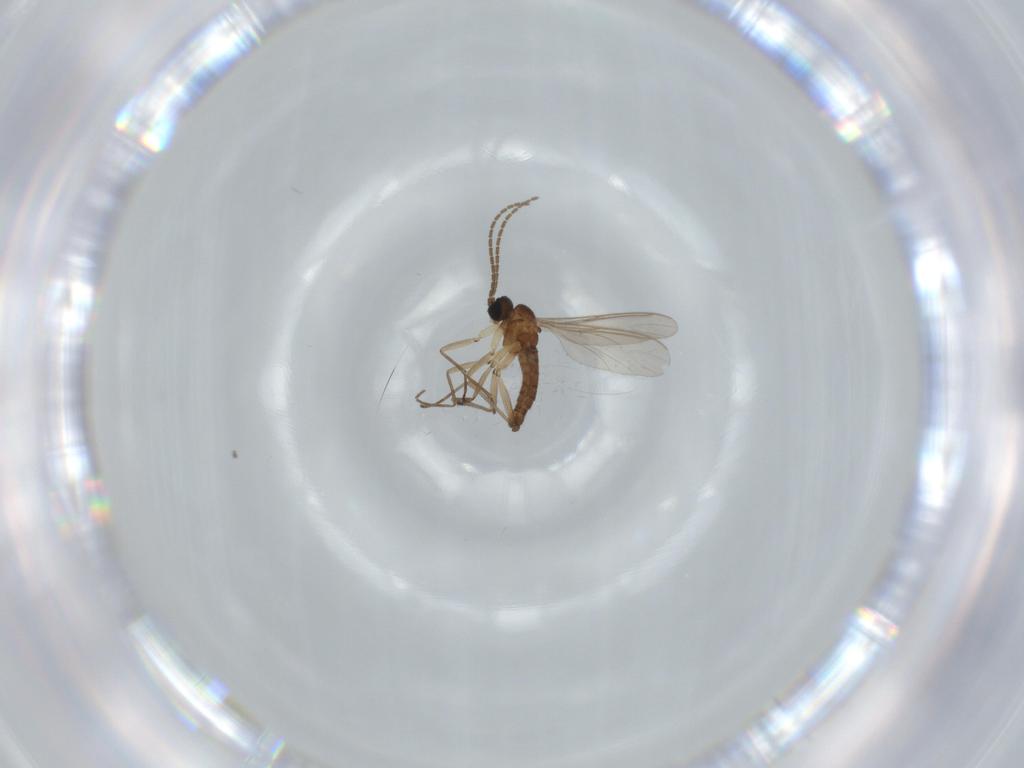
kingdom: Animalia
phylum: Arthropoda
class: Insecta
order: Diptera
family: Sciaridae
